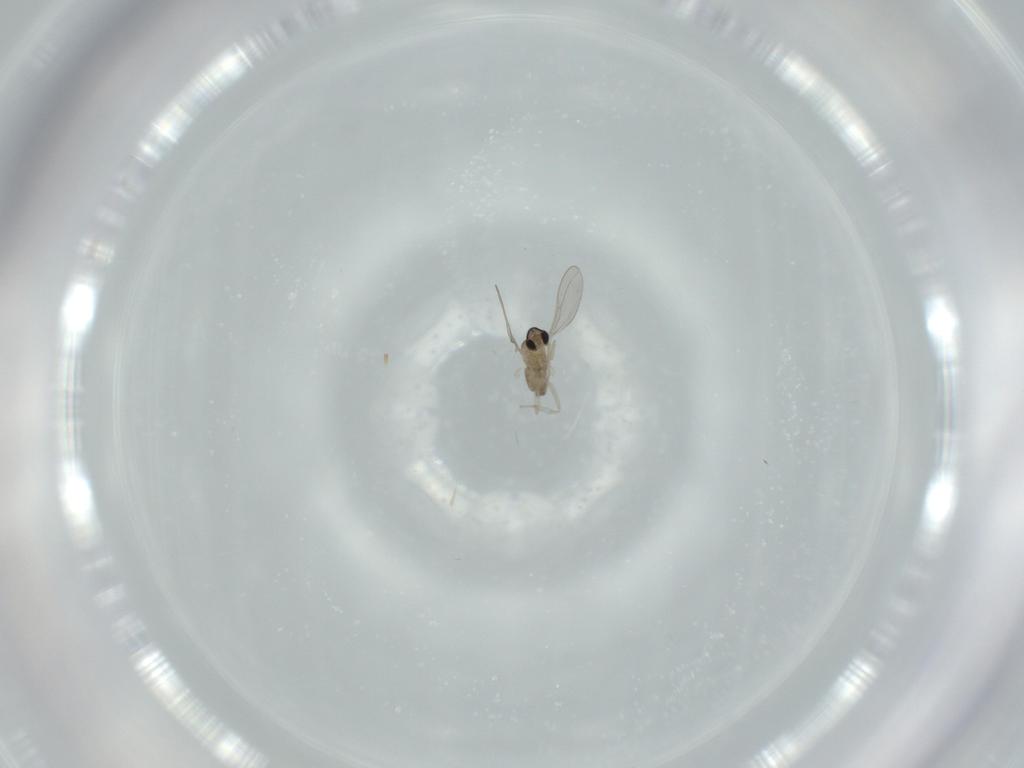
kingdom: Animalia
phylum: Arthropoda
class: Insecta
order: Diptera
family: Cecidomyiidae
